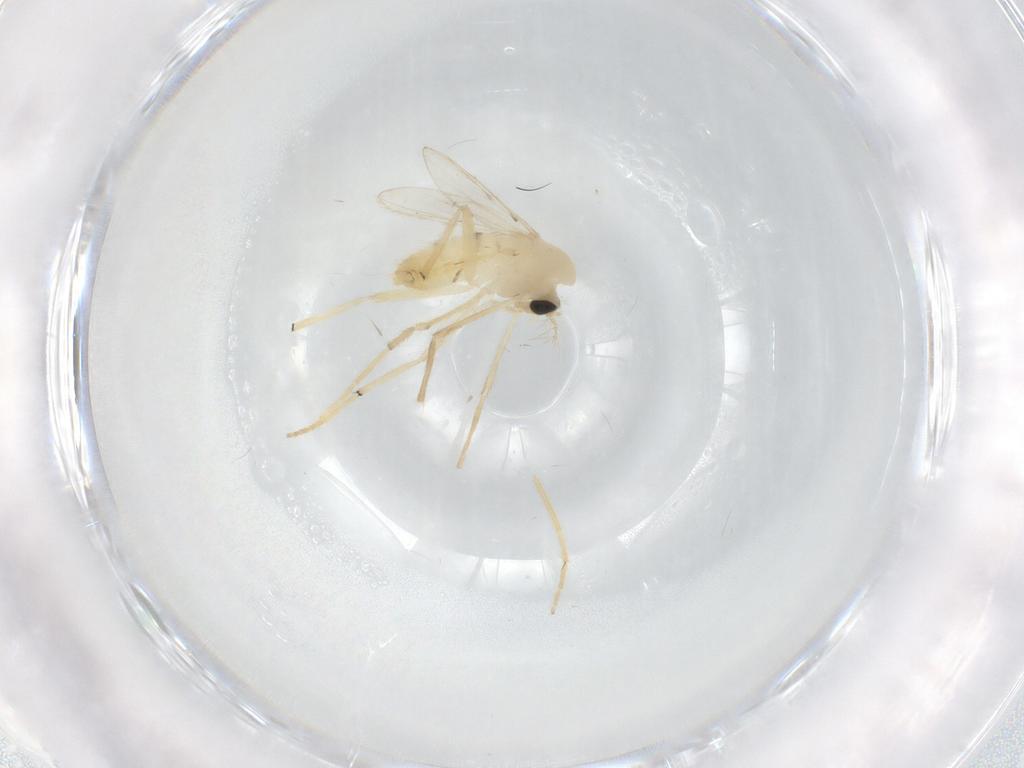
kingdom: Animalia
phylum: Arthropoda
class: Insecta
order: Diptera
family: Chironomidae
